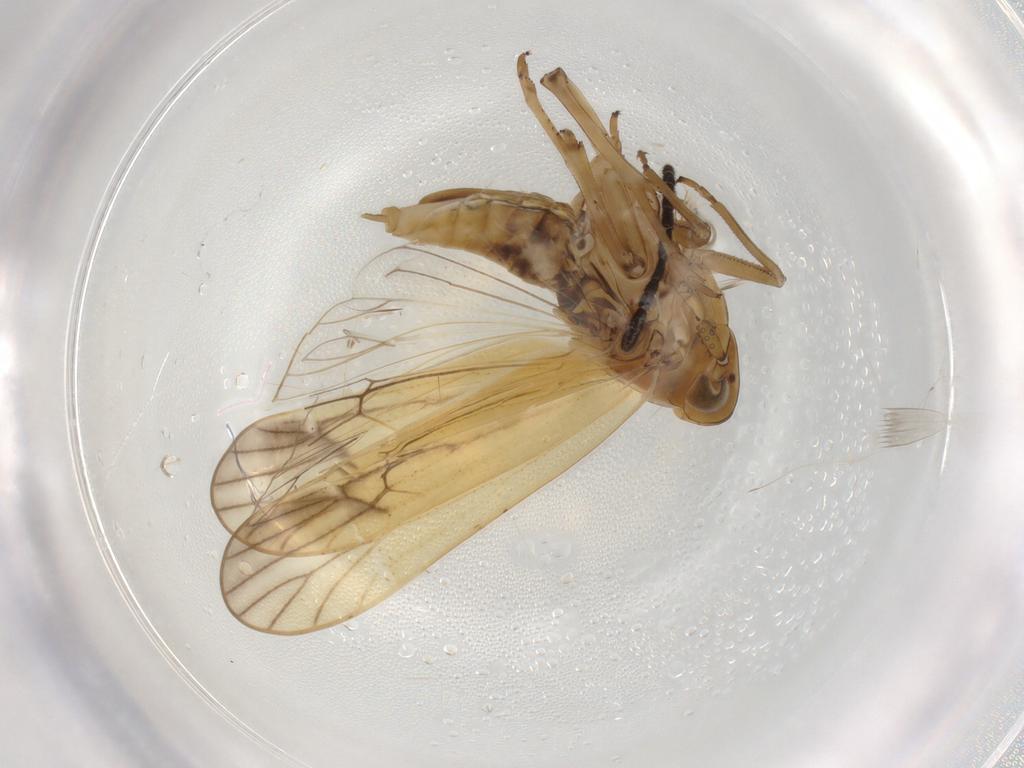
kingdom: Animalia
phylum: Arthropoda
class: Insecta
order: Hemiptera
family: Delphacidae
